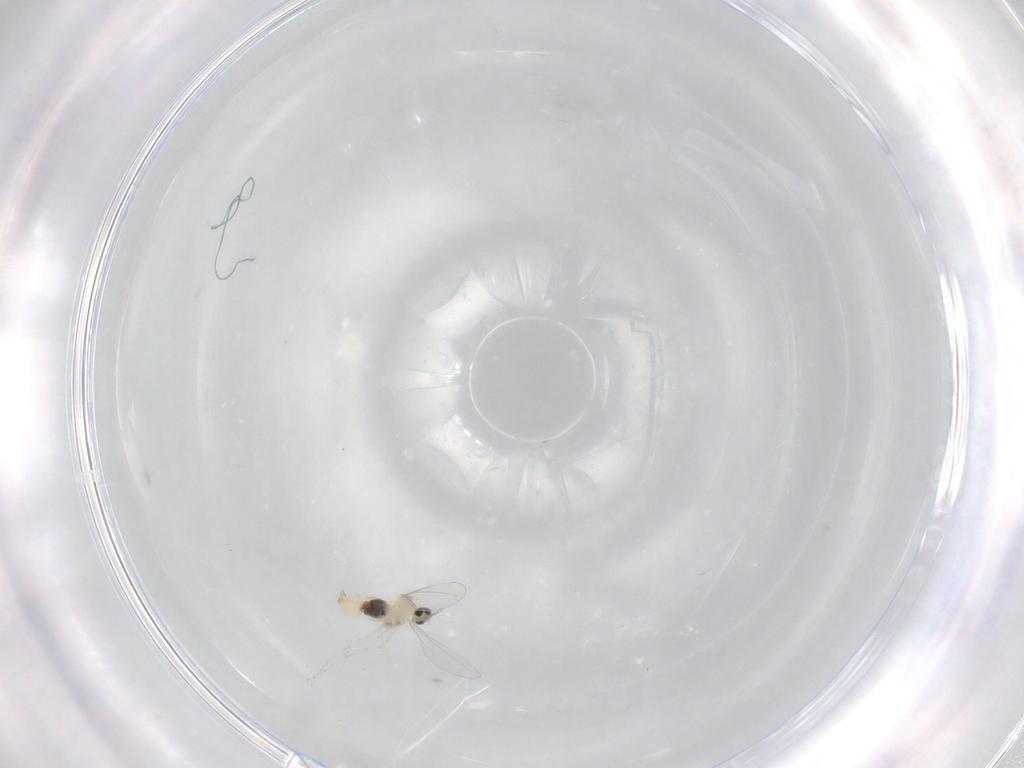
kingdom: Animalia
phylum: Arthropoda
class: Insecta
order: Diptera
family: Cecidomyiidae
